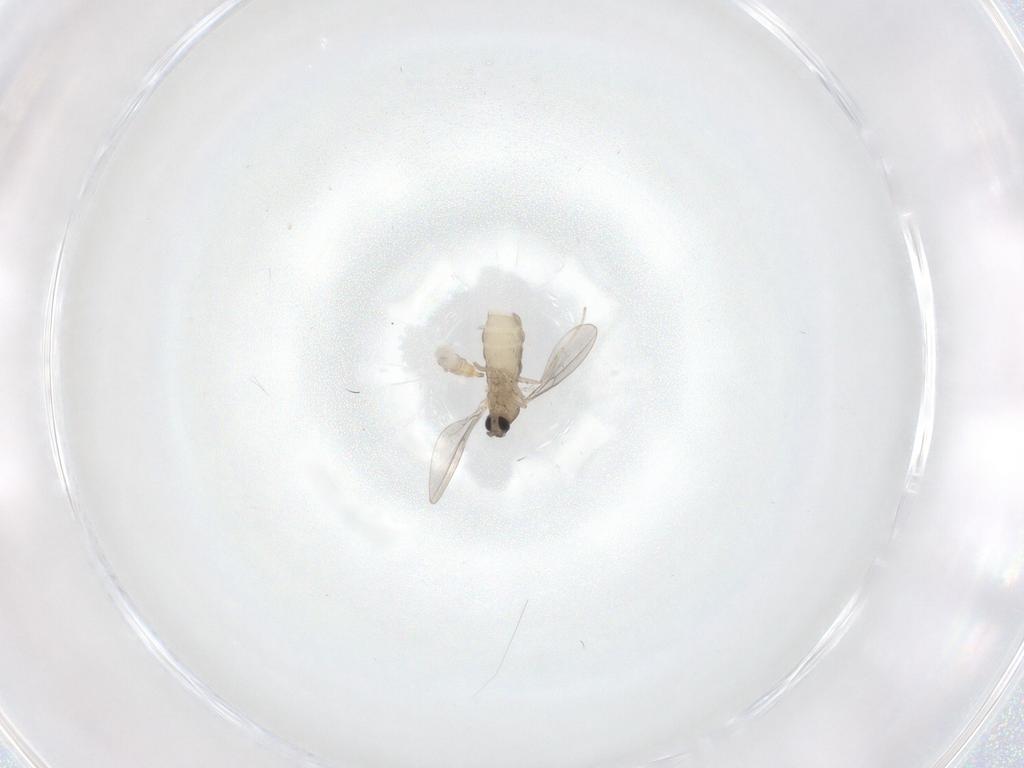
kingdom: Animalia
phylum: Arthropoda
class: Insecta
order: Diptera
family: Cecidomyiidae
